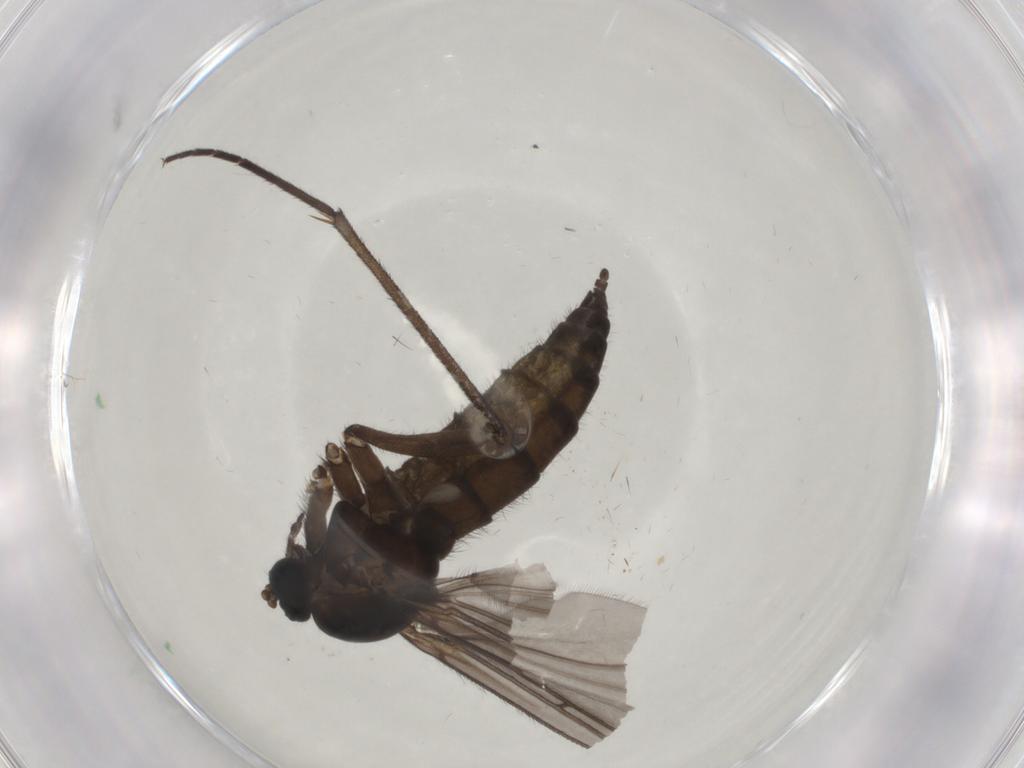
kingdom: Animalia
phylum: Arthropoda
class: Insecta
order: Diptera
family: Sciaridae
